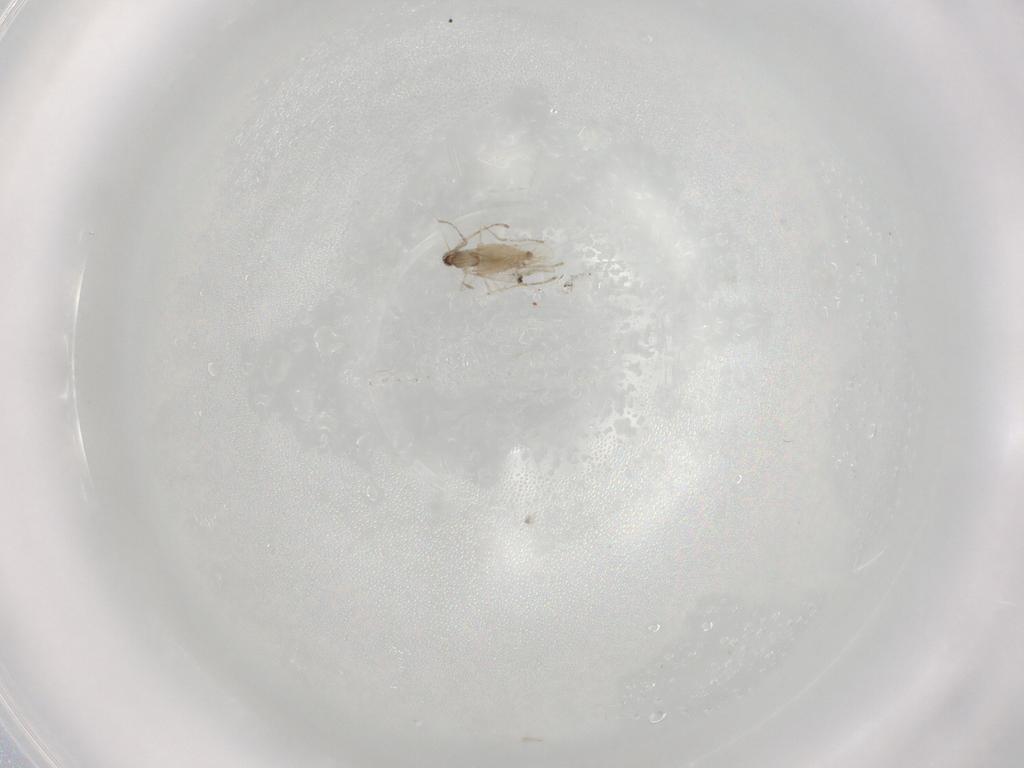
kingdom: Animalia
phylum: Arthropoda
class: Insecta
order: Diptera
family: Cecidomyiidae
